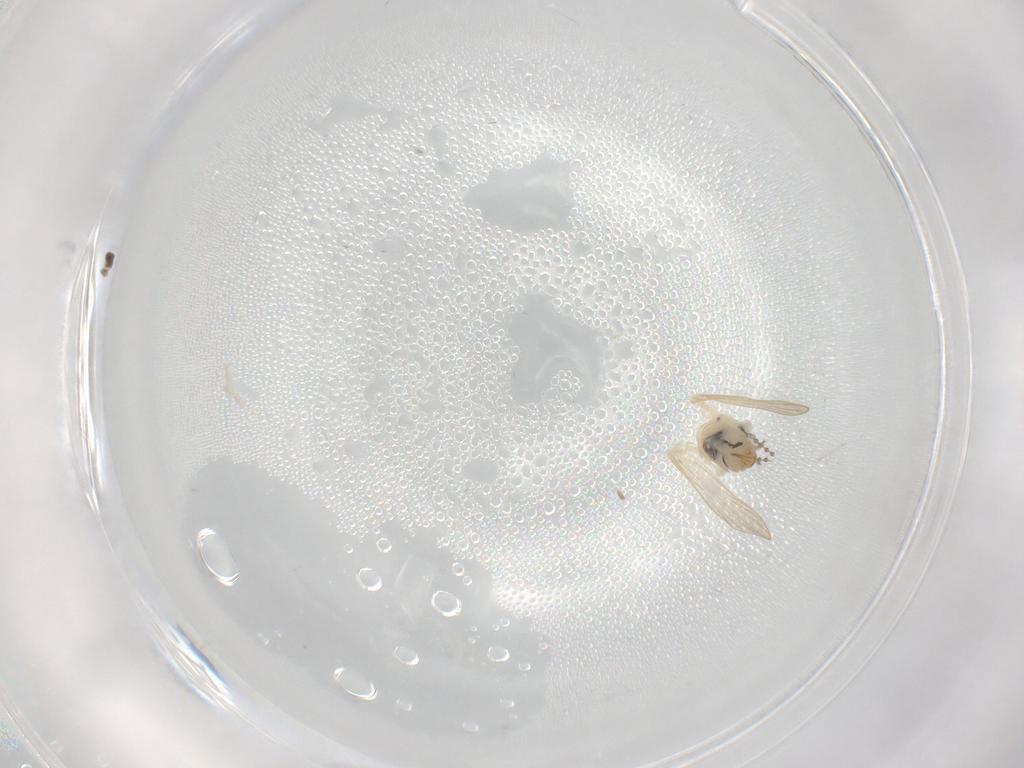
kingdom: Animalia
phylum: Arthropoda
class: Insecta
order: Diptera
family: Psychodidae
